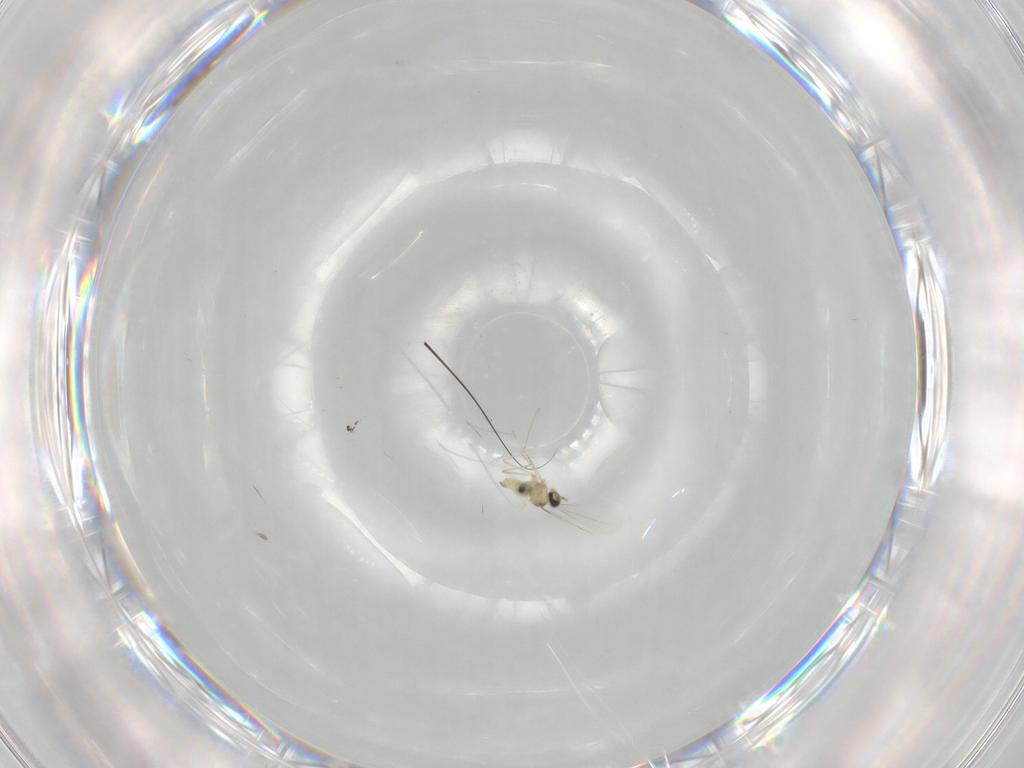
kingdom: Animalia
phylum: Arthropoda
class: Insecta
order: Diptera
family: Cecidomyiidae
